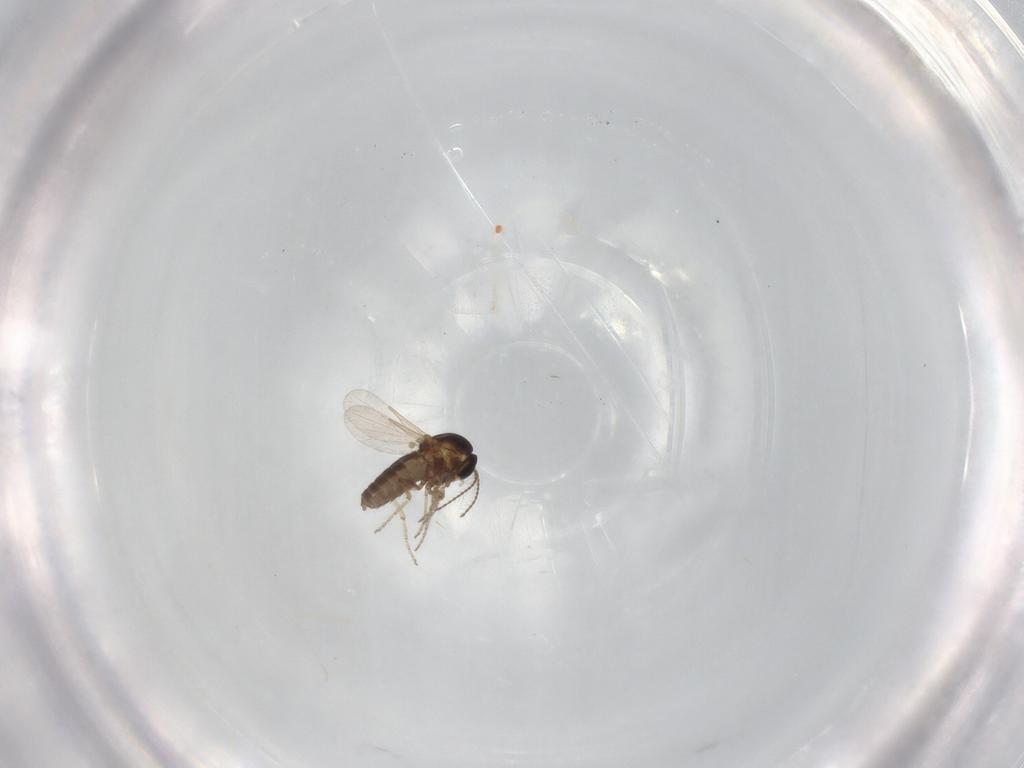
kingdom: Animalia
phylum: Arthropoda
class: Insecta
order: Diptera
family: Ceratopogonidae
